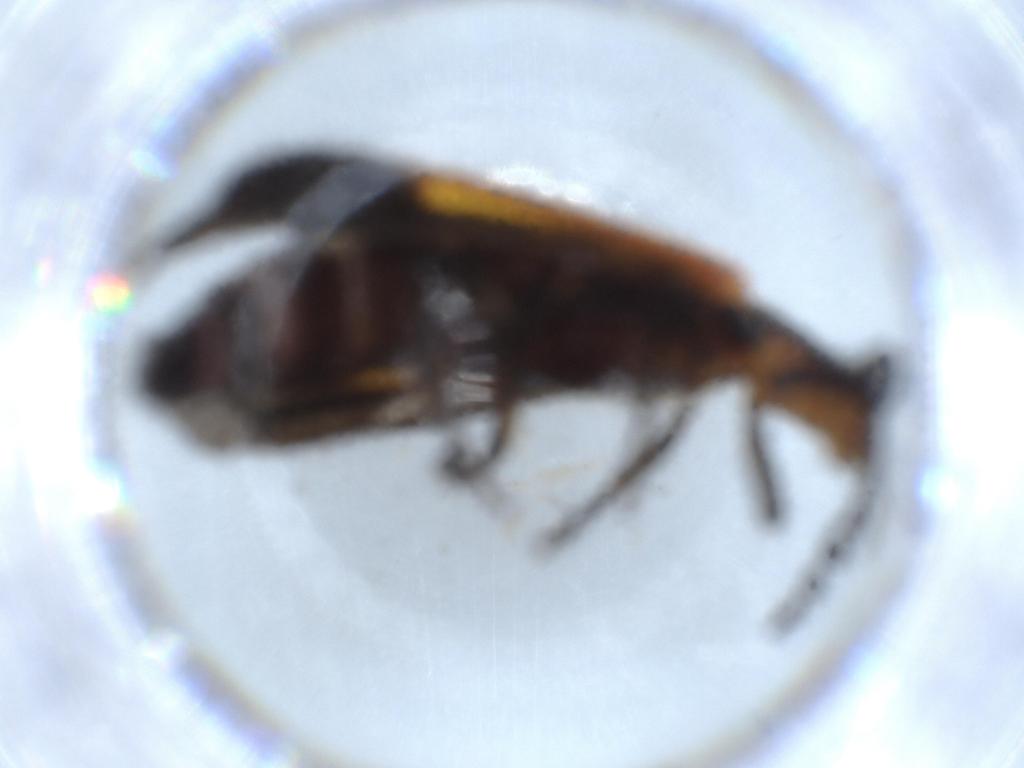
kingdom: Animalia
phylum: Arthropoda
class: Insecta
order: Coleoptera
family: Cleridae
